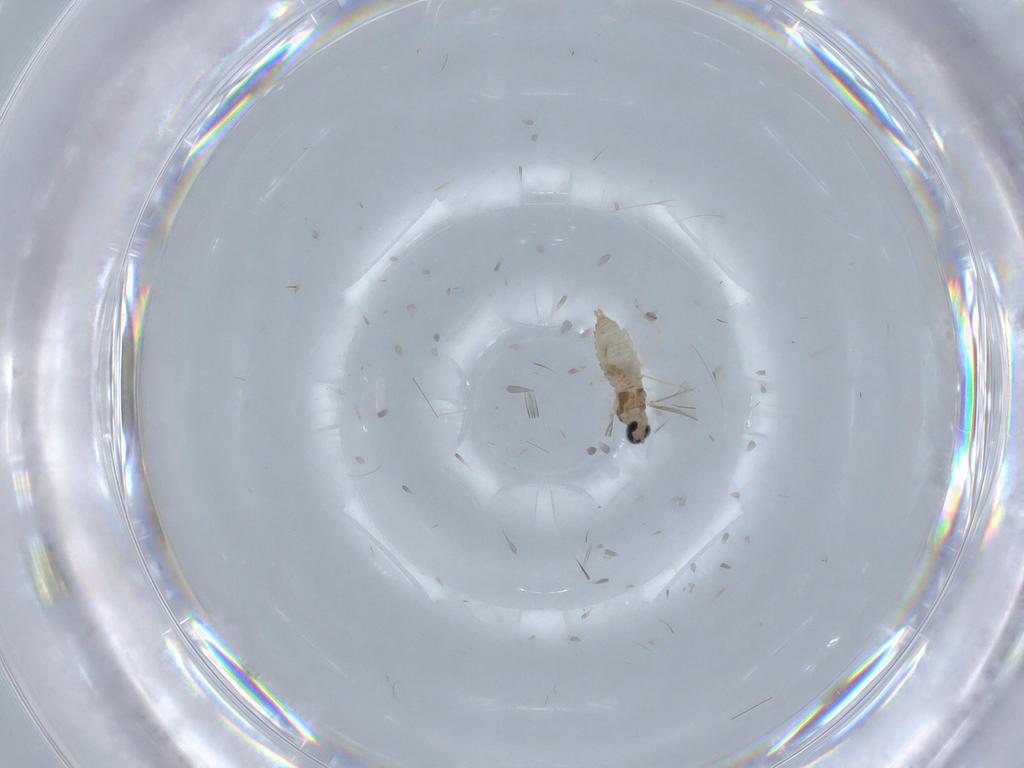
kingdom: Animalia
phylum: Arthropoda
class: Insecta
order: Diptera
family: Cecidomyiidae
